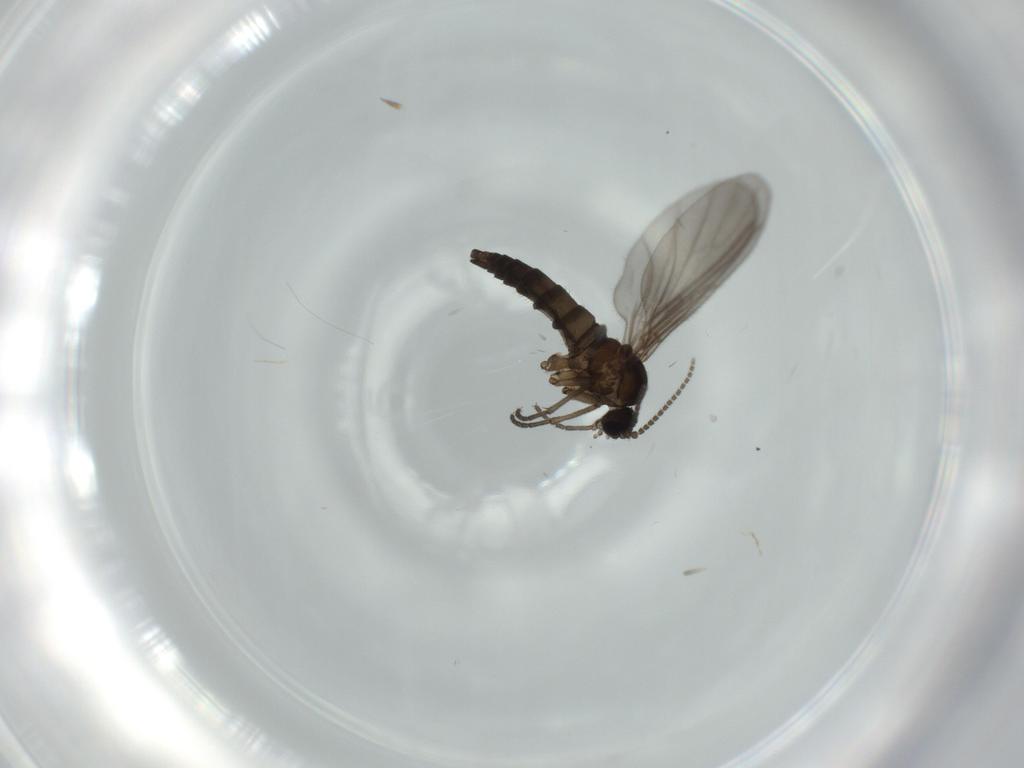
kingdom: Animalia
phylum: Arthropoda
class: Insecta
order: Diptera
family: Sciaridae
